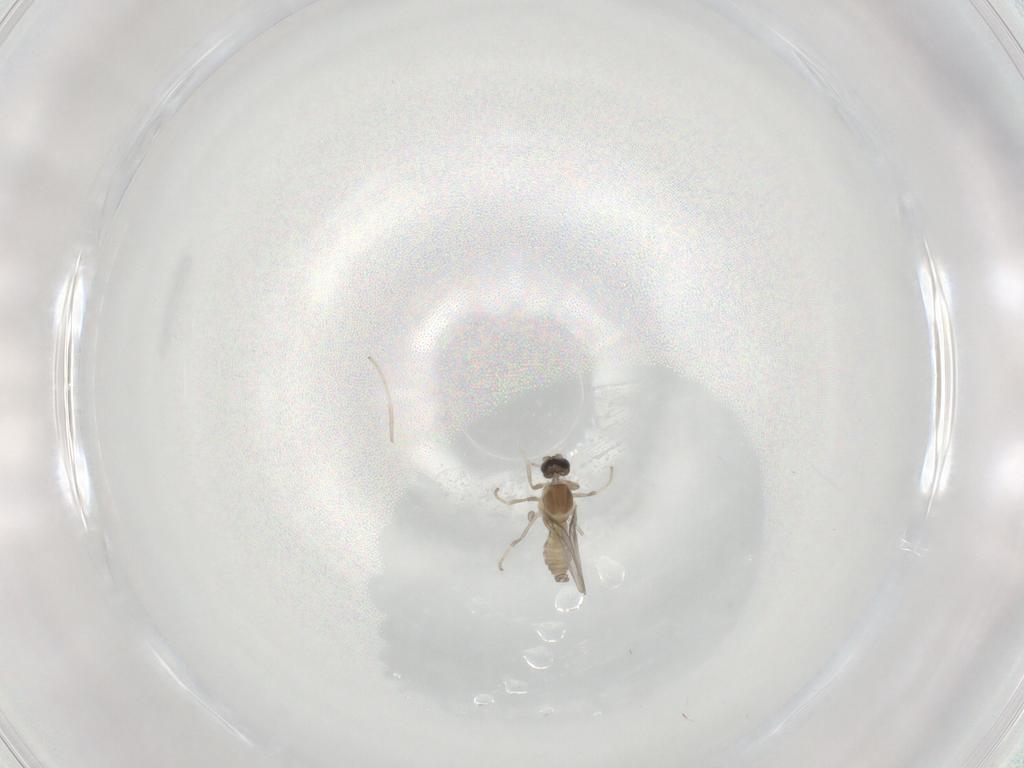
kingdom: Animalia
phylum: Arthropoda
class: Insecta
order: Diptera
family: Cecidomyiidae
